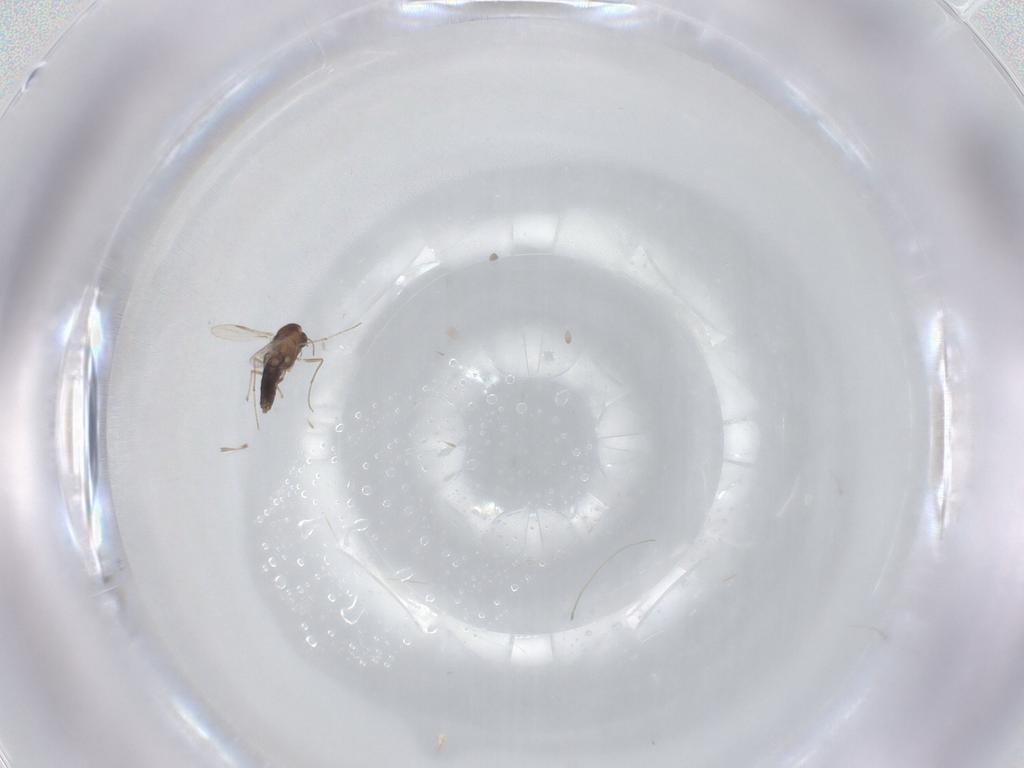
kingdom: Animalia
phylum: Arthropoda
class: Insecta
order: Diptera
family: Chironomidae
